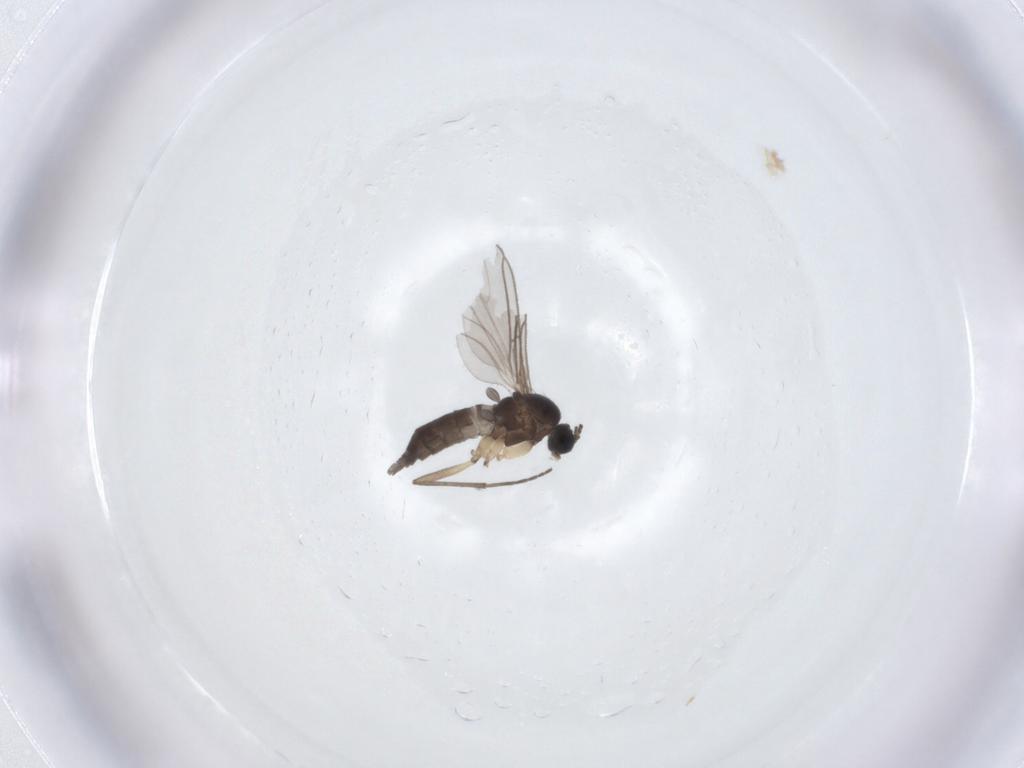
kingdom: Animalia
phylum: Arthropoda
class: Insecta
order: Diptera
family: Sciaridae
